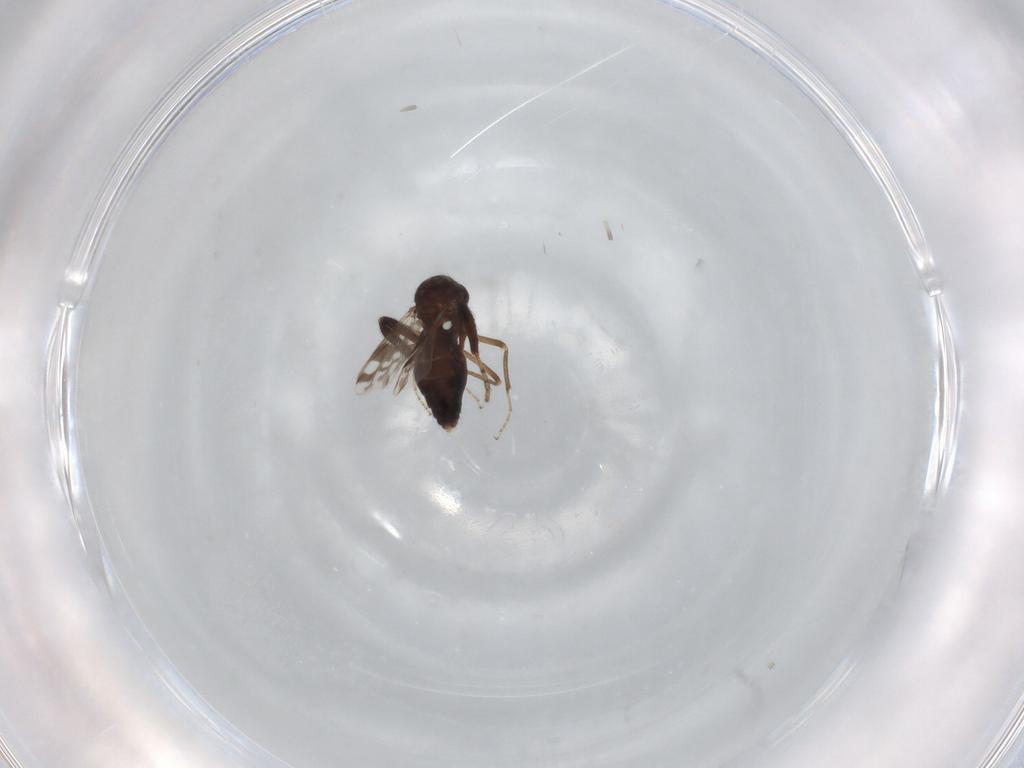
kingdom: Animalia
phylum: Arthropoda
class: Insecta
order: Diptera
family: Ceratopogonidae
